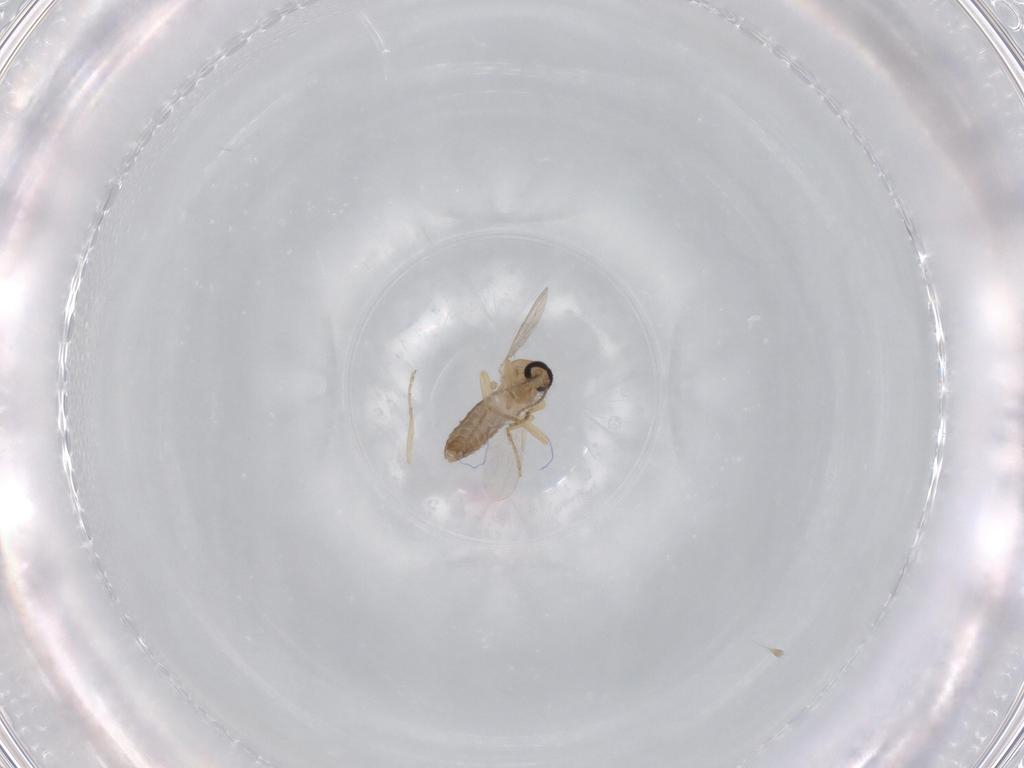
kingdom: Animalia
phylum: Arthropoda
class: Insecta
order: Diptera
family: Ceratopogonidae
